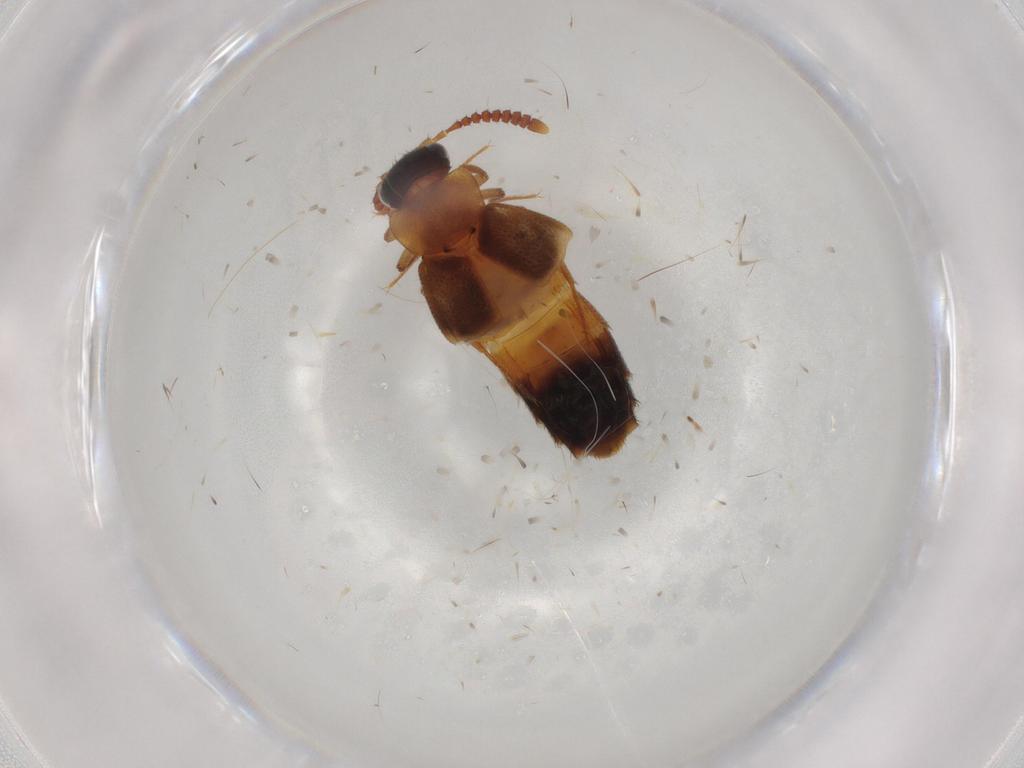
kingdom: Animalia
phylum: Arthropoda
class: Insecta
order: Coleoptera
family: Staphylinidae
